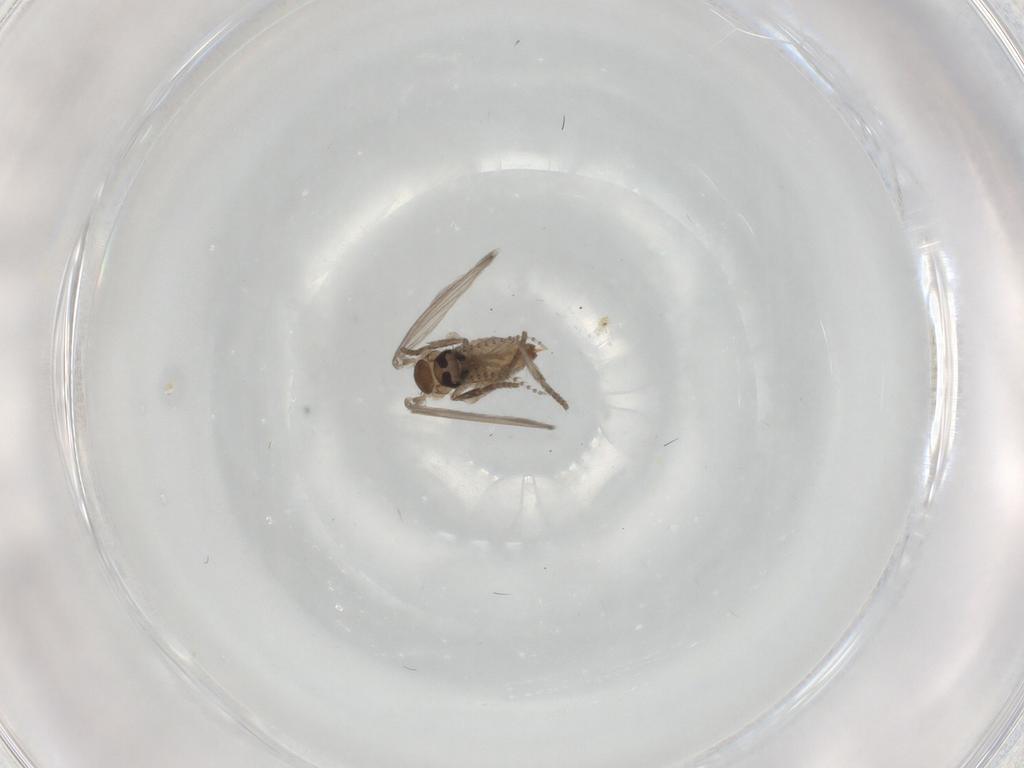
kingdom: Animalia
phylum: Arthropoda
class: Insecta
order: Diptera
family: Psychodidae
